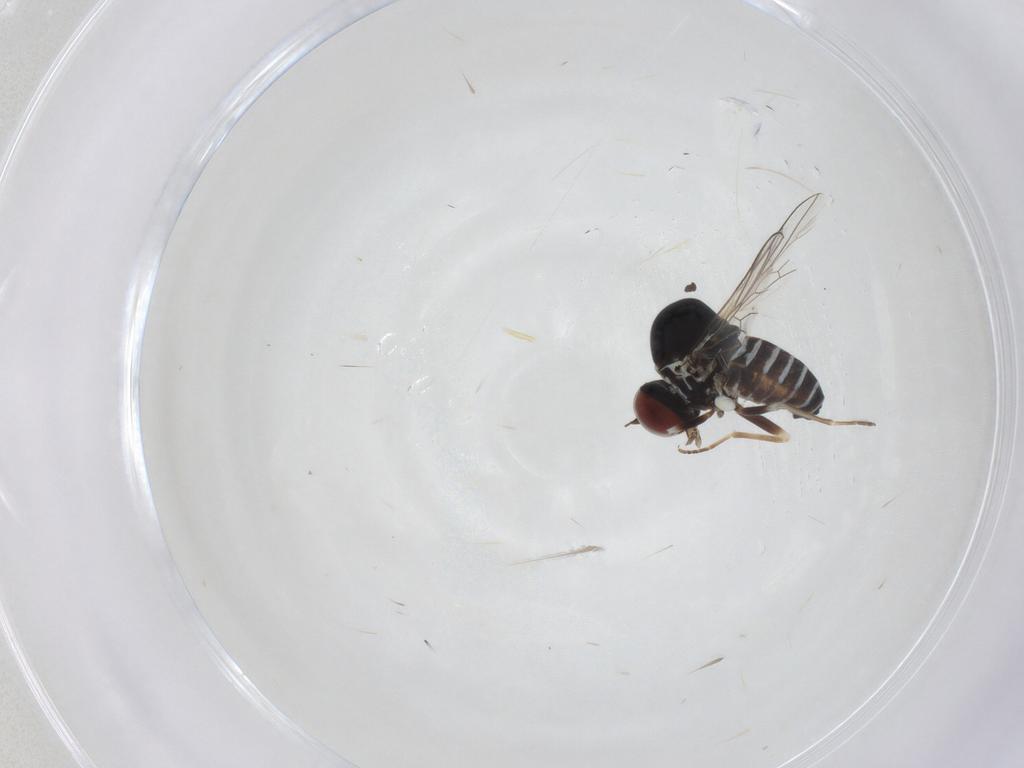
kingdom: Animalia
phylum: Arthropoda
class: Insecta
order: Diptera
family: Bombyliidae
